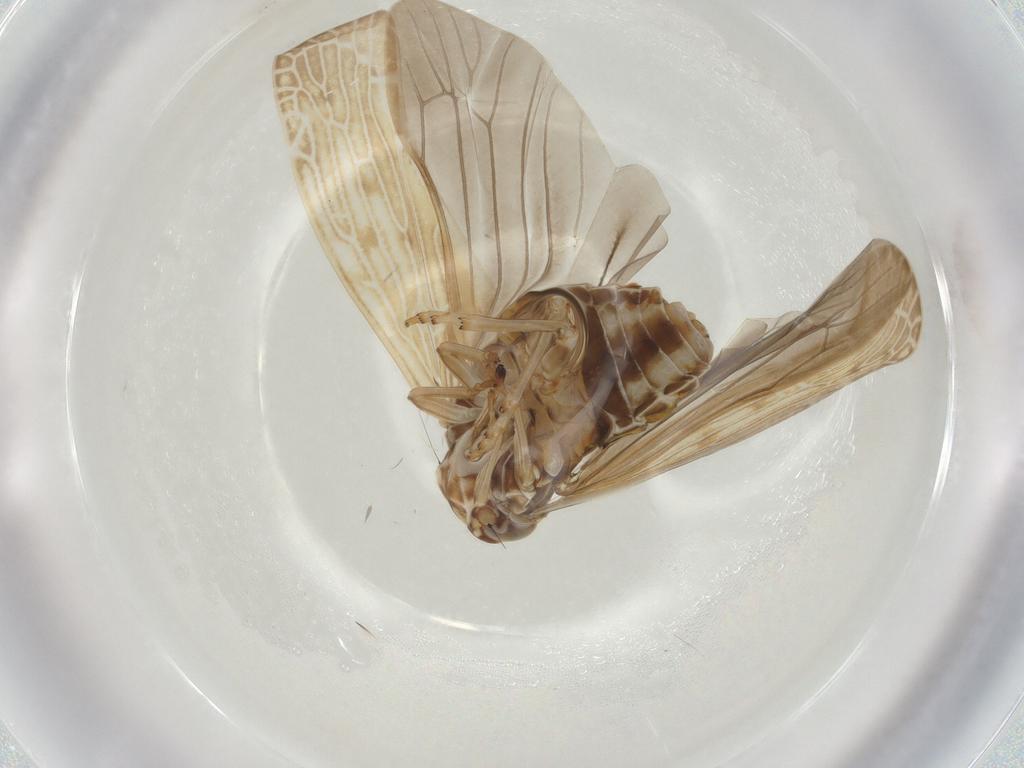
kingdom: Animalia
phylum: Arthropoda
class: Insecta
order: Hemiptera
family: Achilidae
